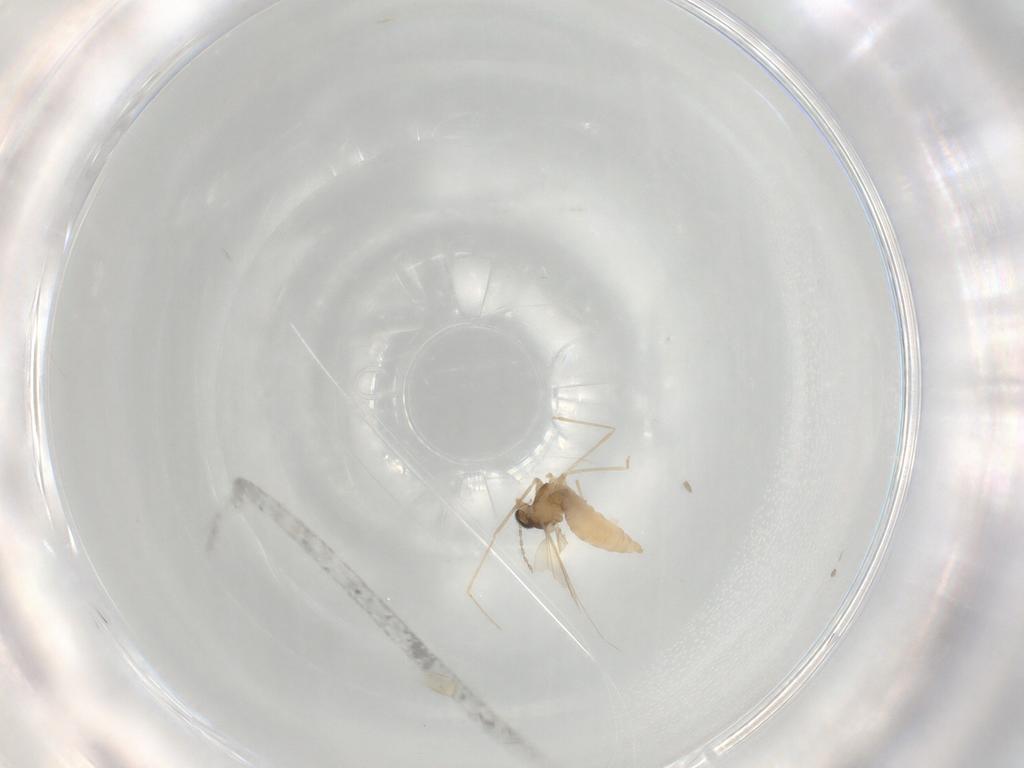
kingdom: Animalia
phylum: Arthropoda
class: Insecta
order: Diptera
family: Cecidomyiidae
